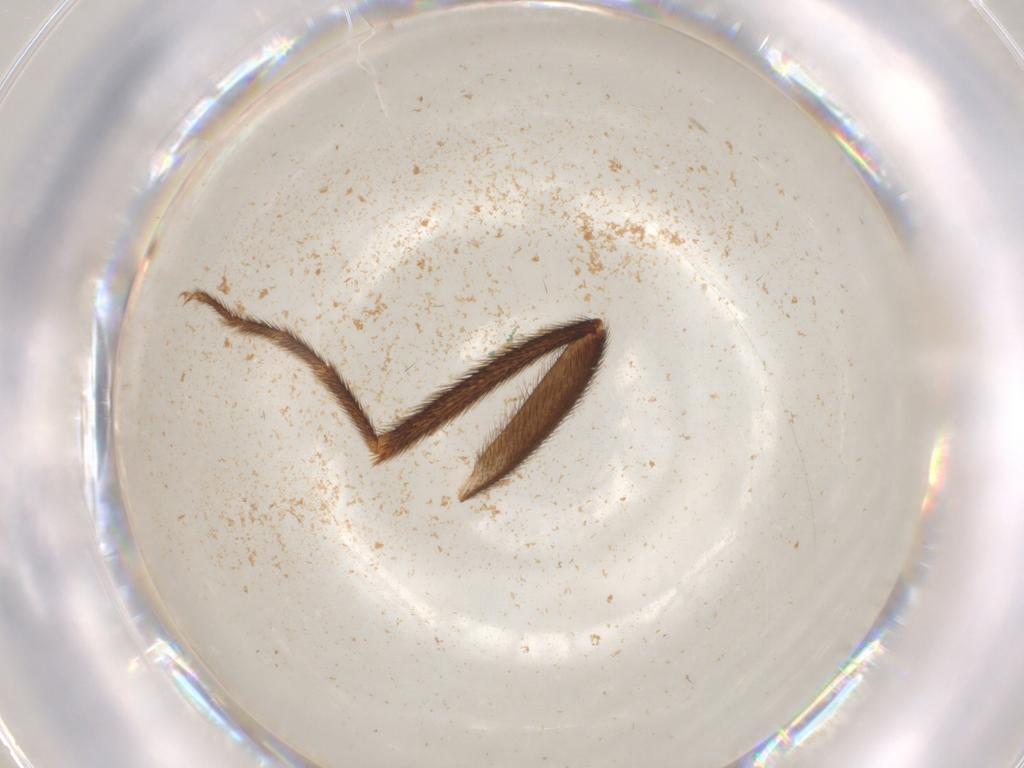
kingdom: Animalia
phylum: Arthropoda
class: Insecta
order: Coleoptera
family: Phengodidae
